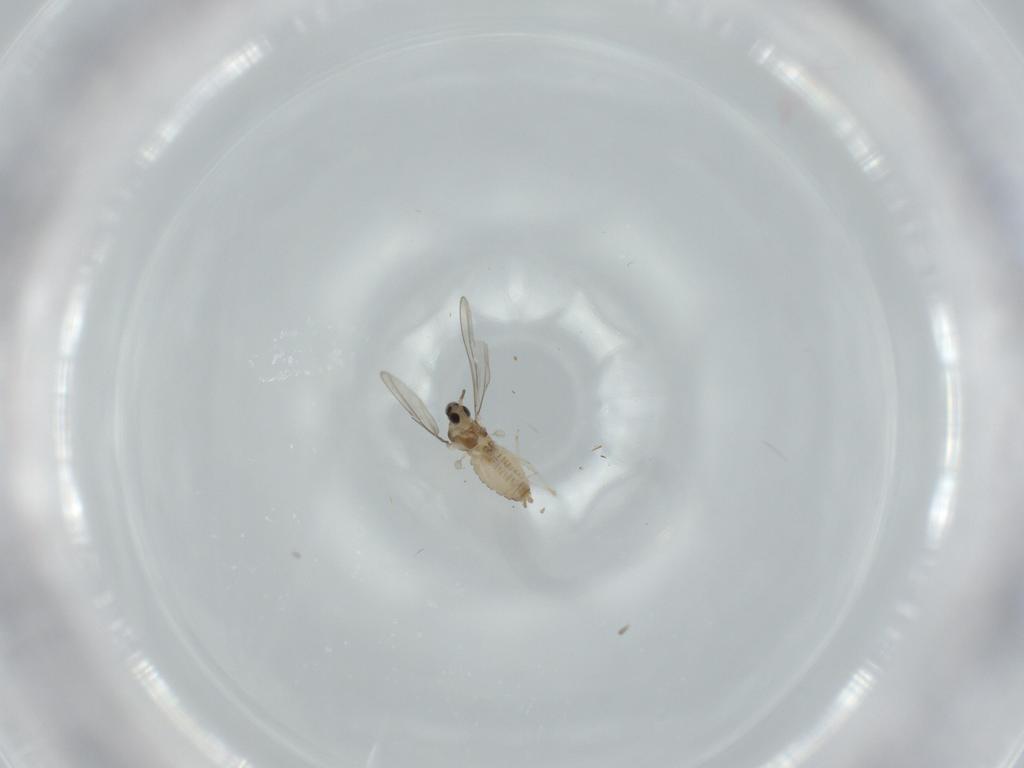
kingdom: Animalia
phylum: Arthropoda
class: Insecta
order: Diptera
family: Cecidomyiidae
